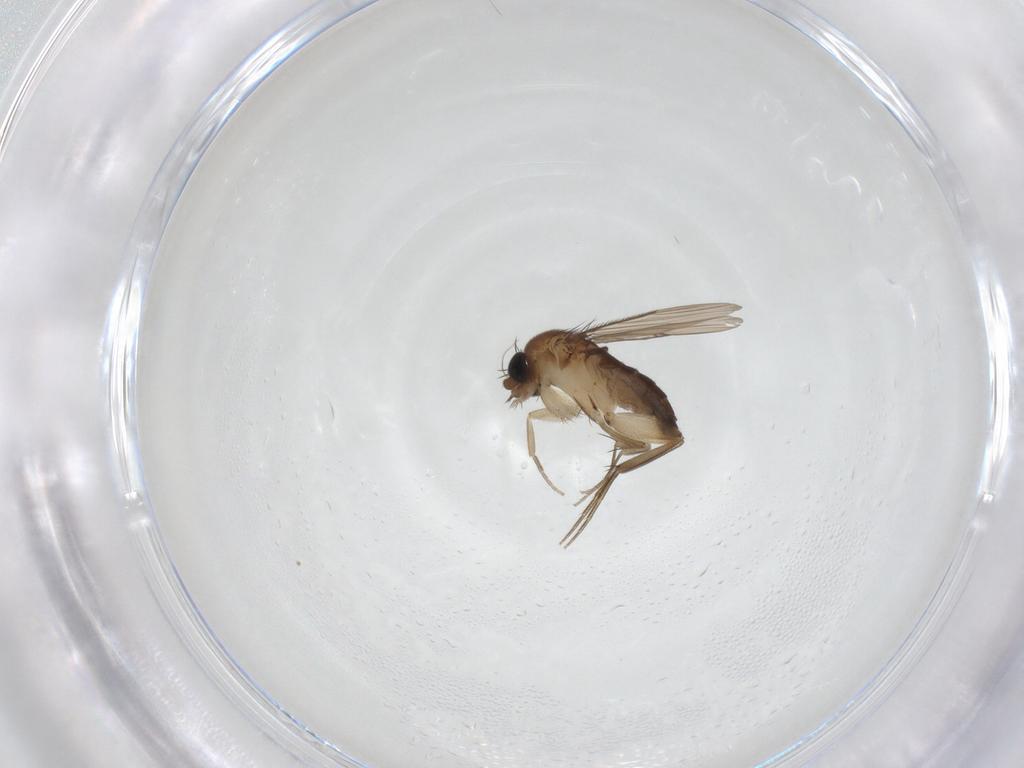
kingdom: Animalia
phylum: Arthropoda
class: Insecta
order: Diptera
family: Phoridae
